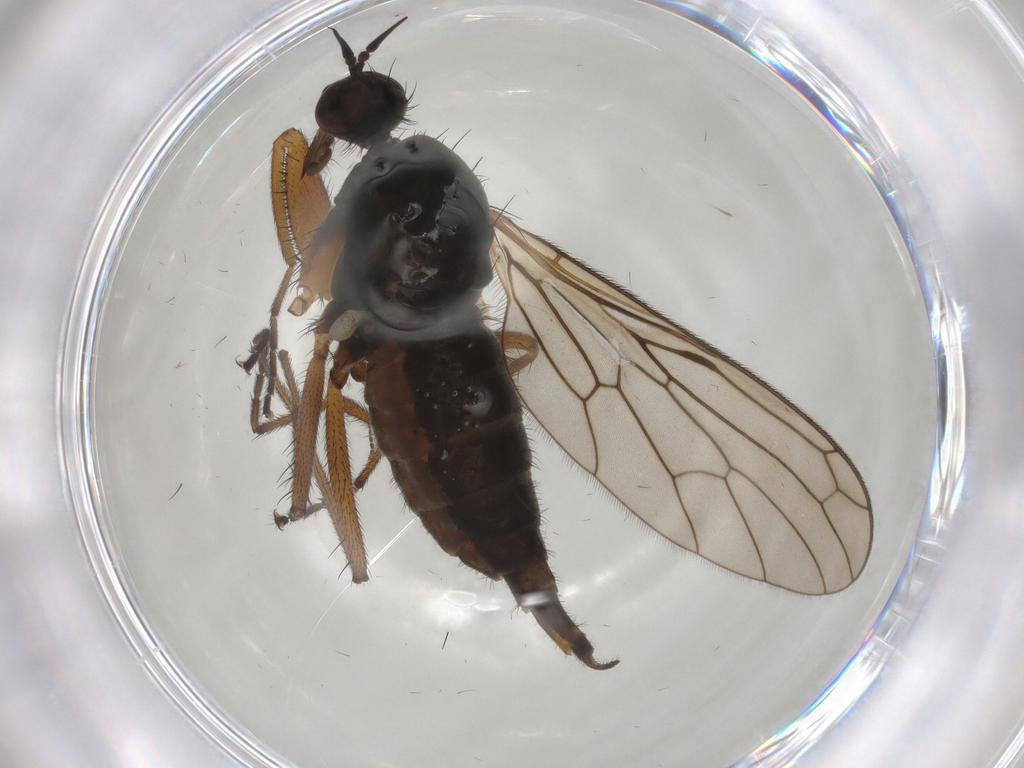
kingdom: Animalia
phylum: Arthropoda
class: Insecta
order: Diptera
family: Chironomidae
